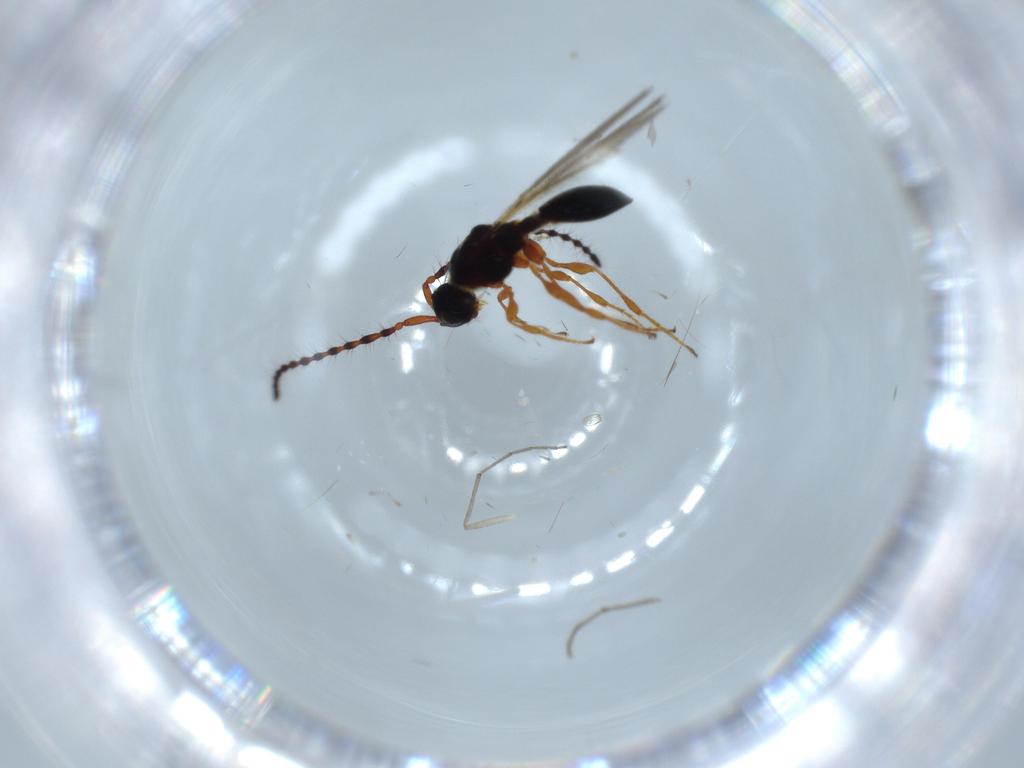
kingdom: Animalia
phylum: Arthropoda
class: Insecta
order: Hymenoptera
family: Diapriidae
